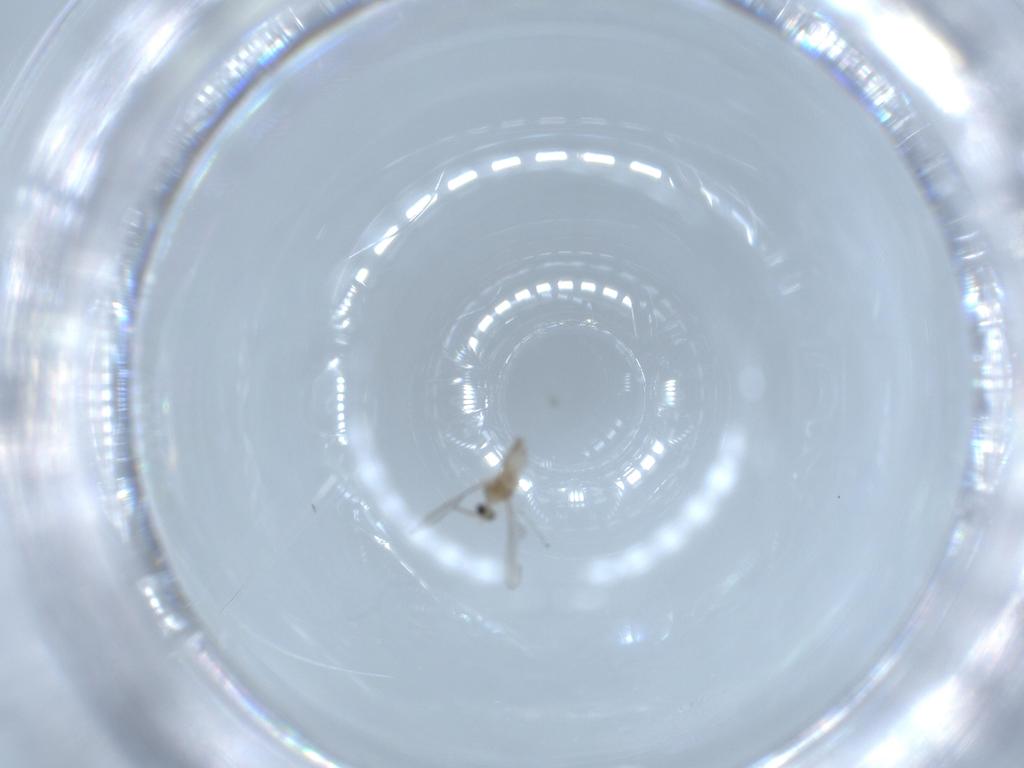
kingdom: Animalia
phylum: Arthropoda
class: Insecta
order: Diptera
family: Cecidomyiidae
